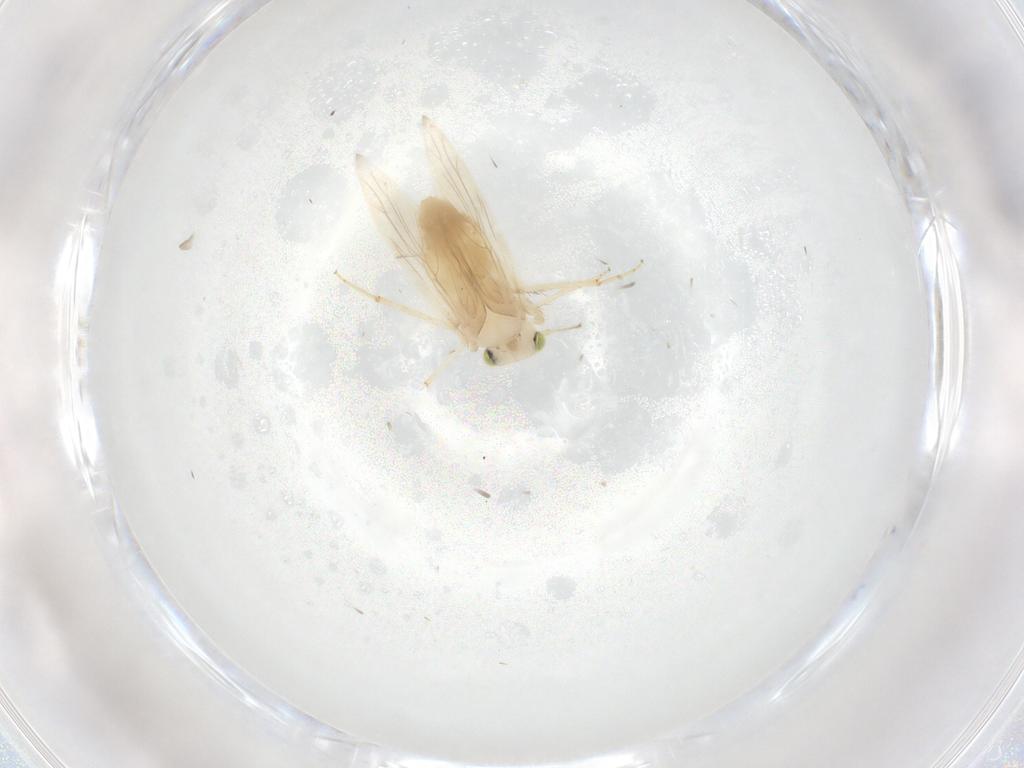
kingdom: Animalia
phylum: Arthropoda
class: Insecta
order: Psocodea
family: Lepidopsocidae
